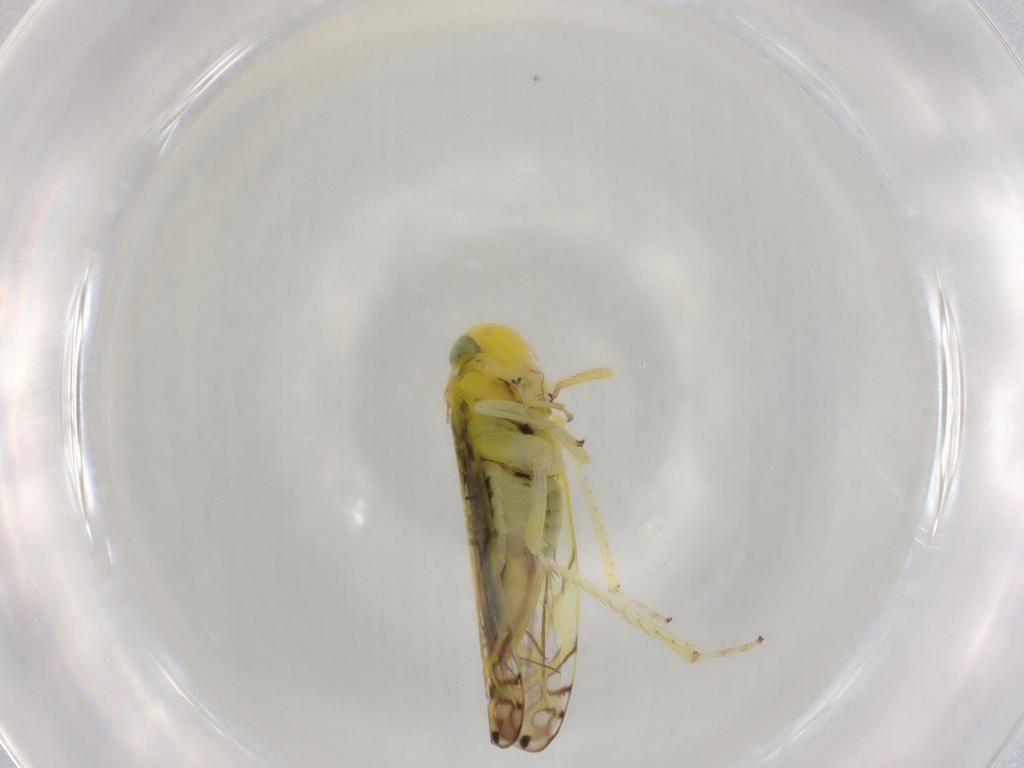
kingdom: Animalia
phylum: Arthropoda
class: Insecta
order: Hemiptera
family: Cicadellidae
